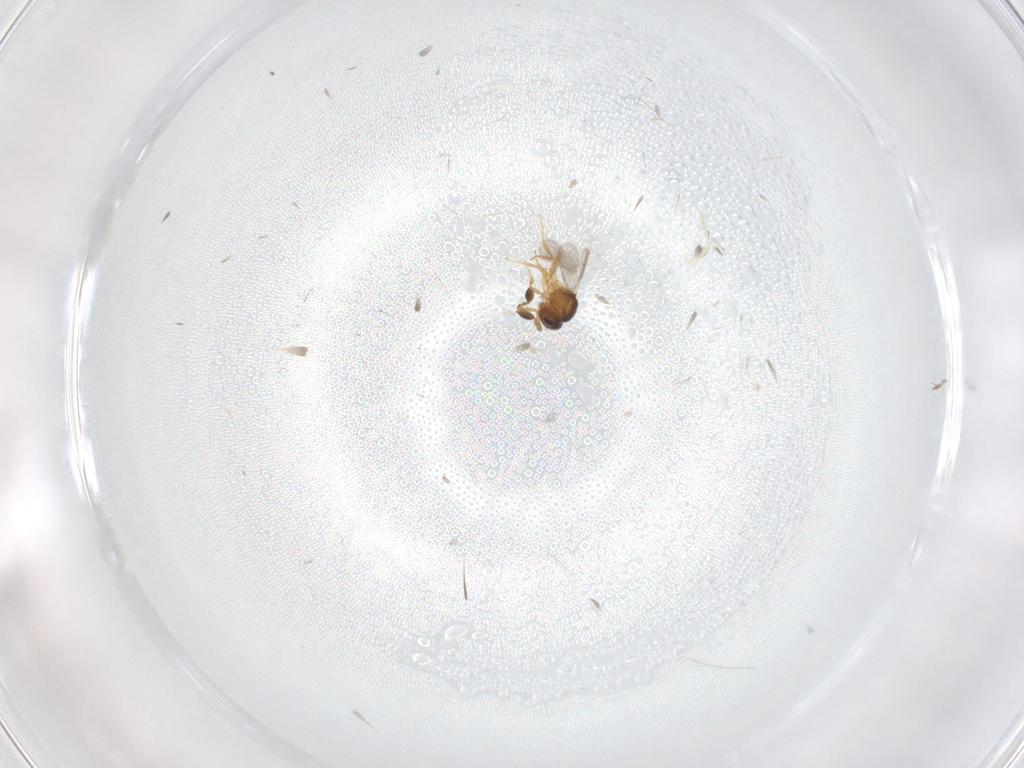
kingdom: Animalia
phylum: Arthropoda
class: Insecta
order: Hymenoptera
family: Ichneumonidae
